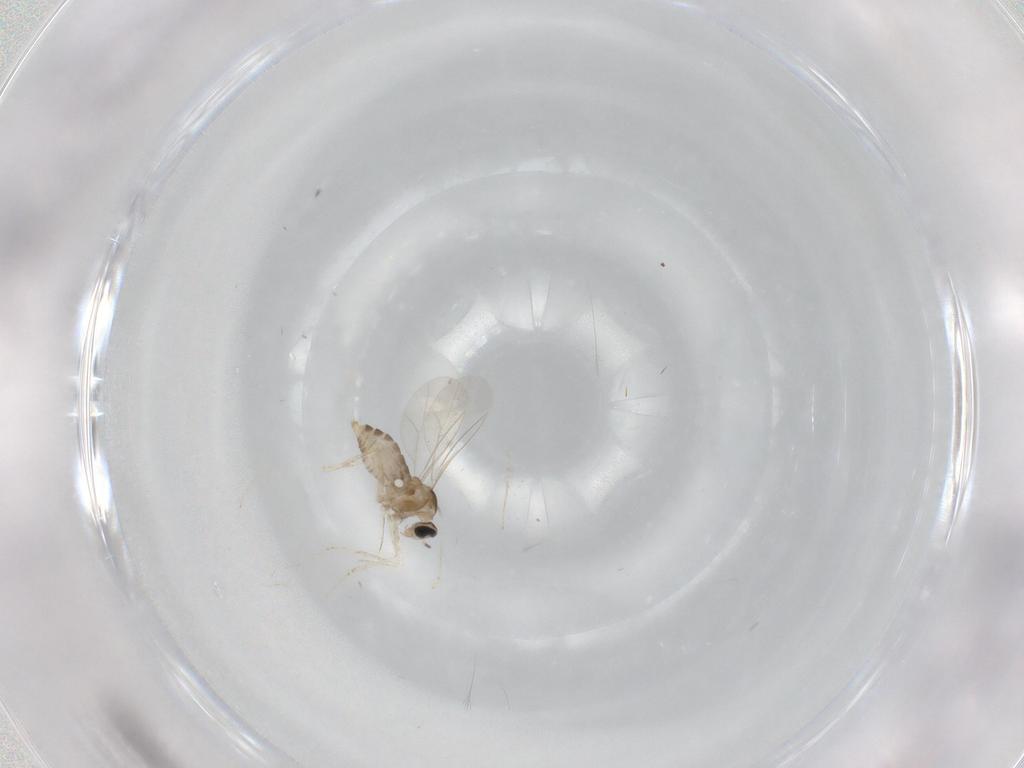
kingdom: Animalia
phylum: Arthropoda
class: Insecta
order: Diptera
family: Cecidomyiidae
